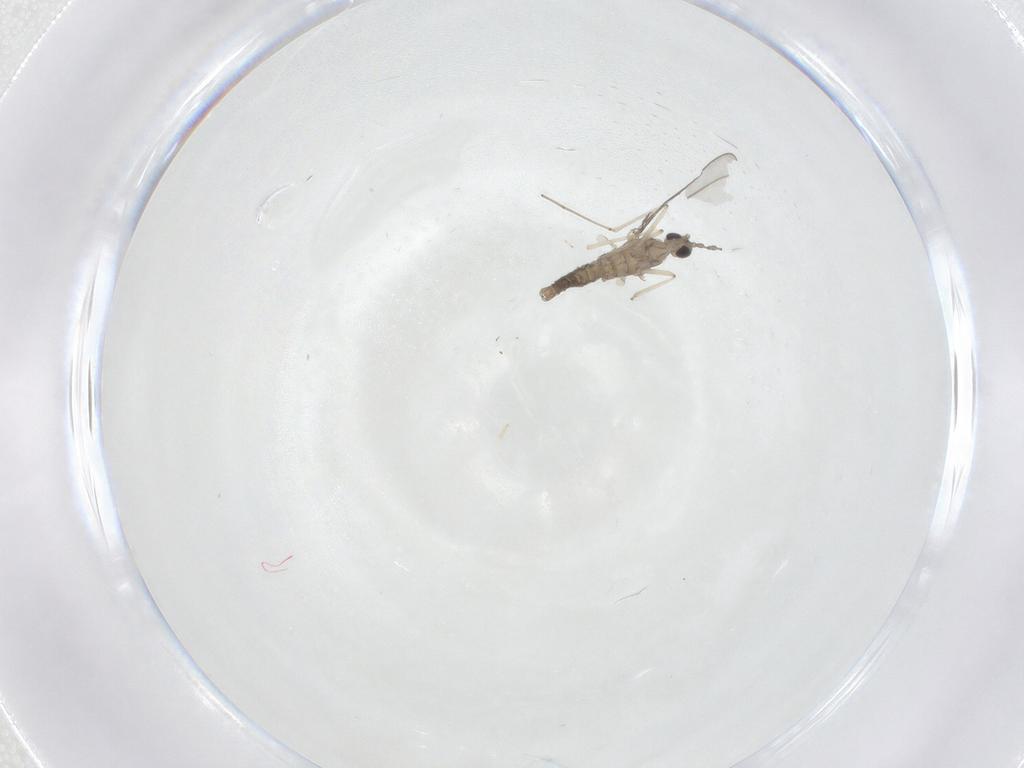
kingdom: Animalia
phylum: Arthropoda
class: Insecta
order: Diptera
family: Cecidomyiidae
